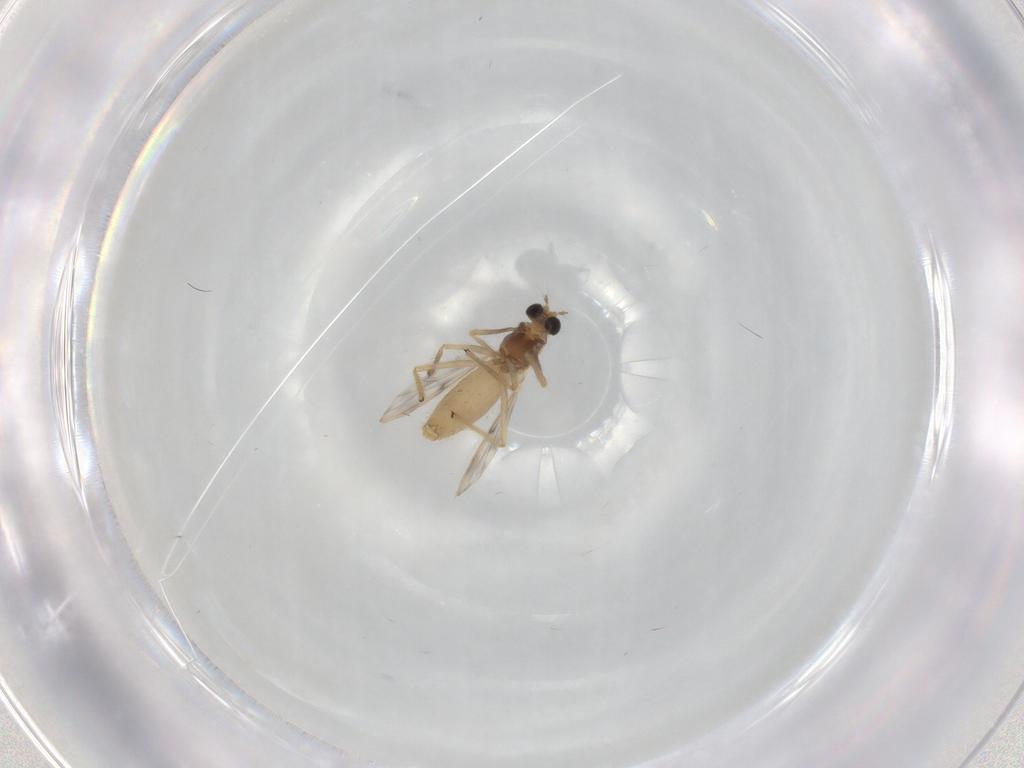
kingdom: Animalia
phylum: Arthropoda
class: Insecta
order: Diptera
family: Chironomidae
